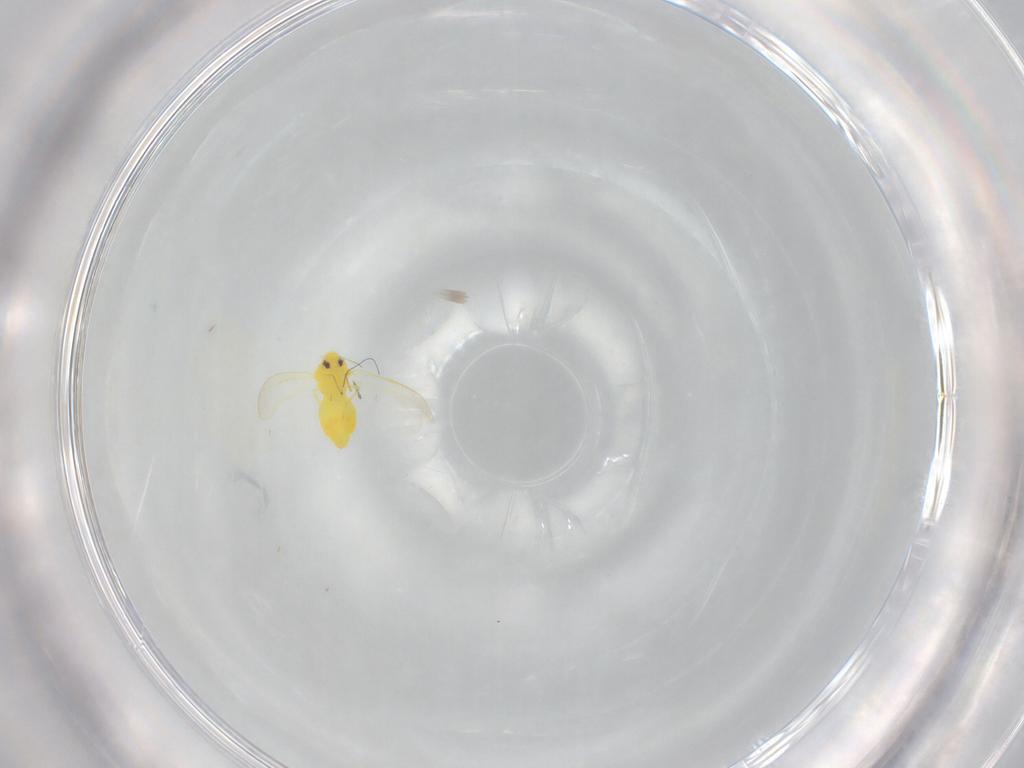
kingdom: Animalia
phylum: Arthropoda
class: Insecta
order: Hemiptera
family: Aleyrodidae
